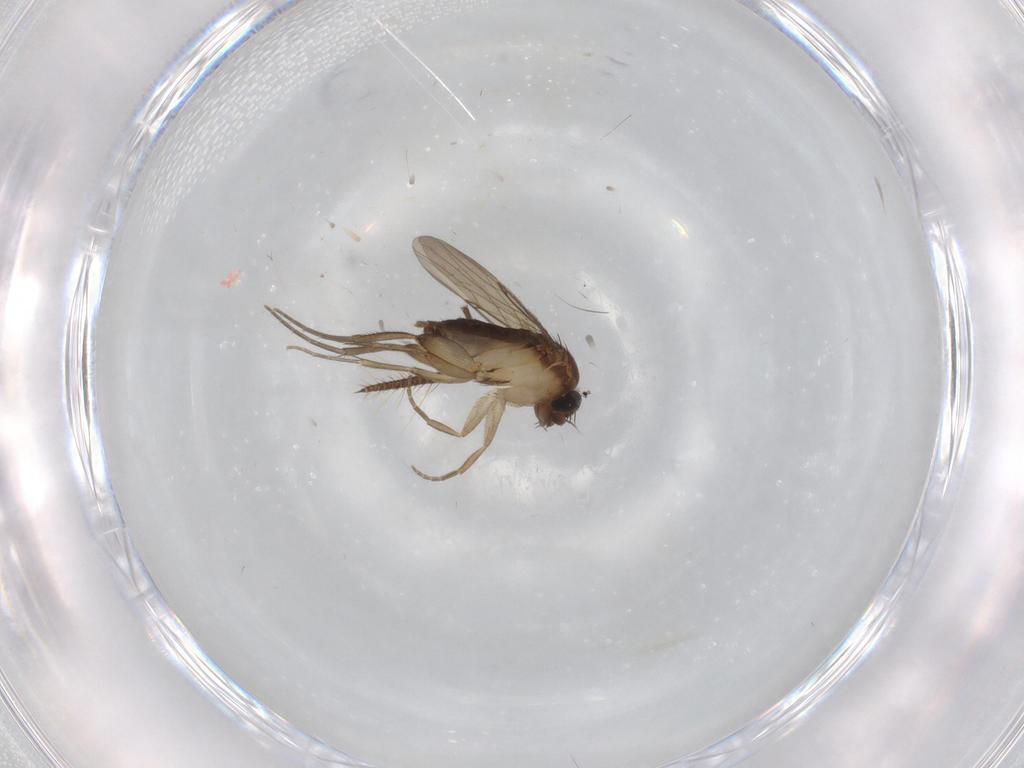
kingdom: Animalia
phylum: Arthropoda
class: Insecta
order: Diptera
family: Phoridae
